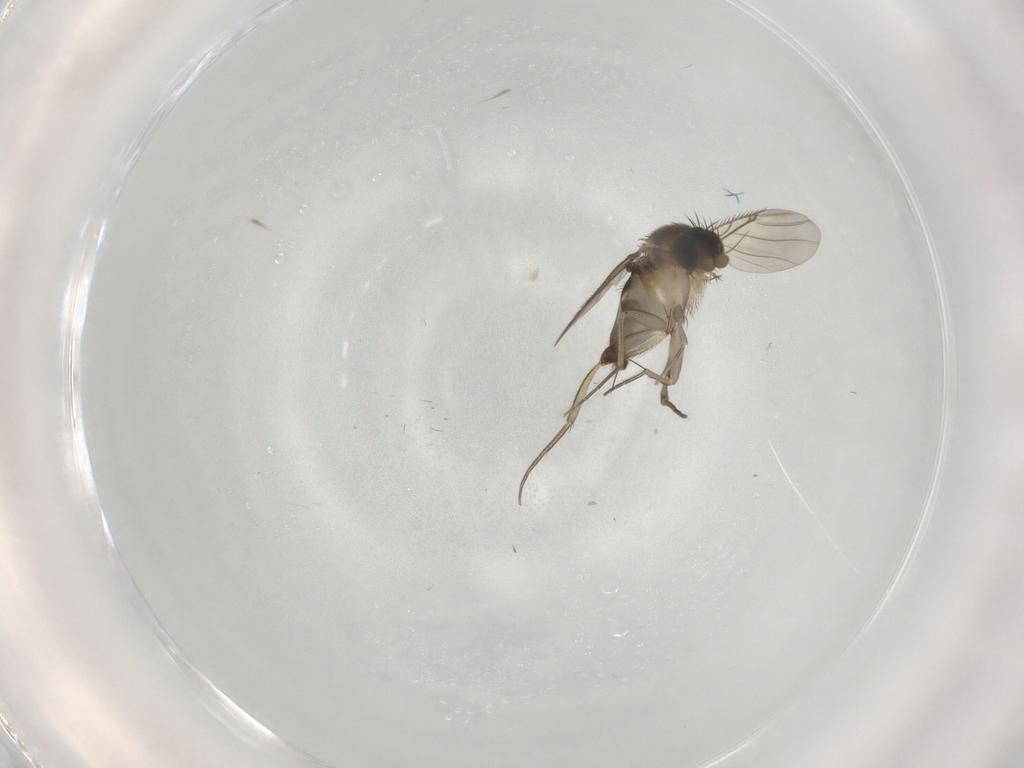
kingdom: Animalia
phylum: Arthropoda
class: Insecta
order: Diptera
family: Phoridae
